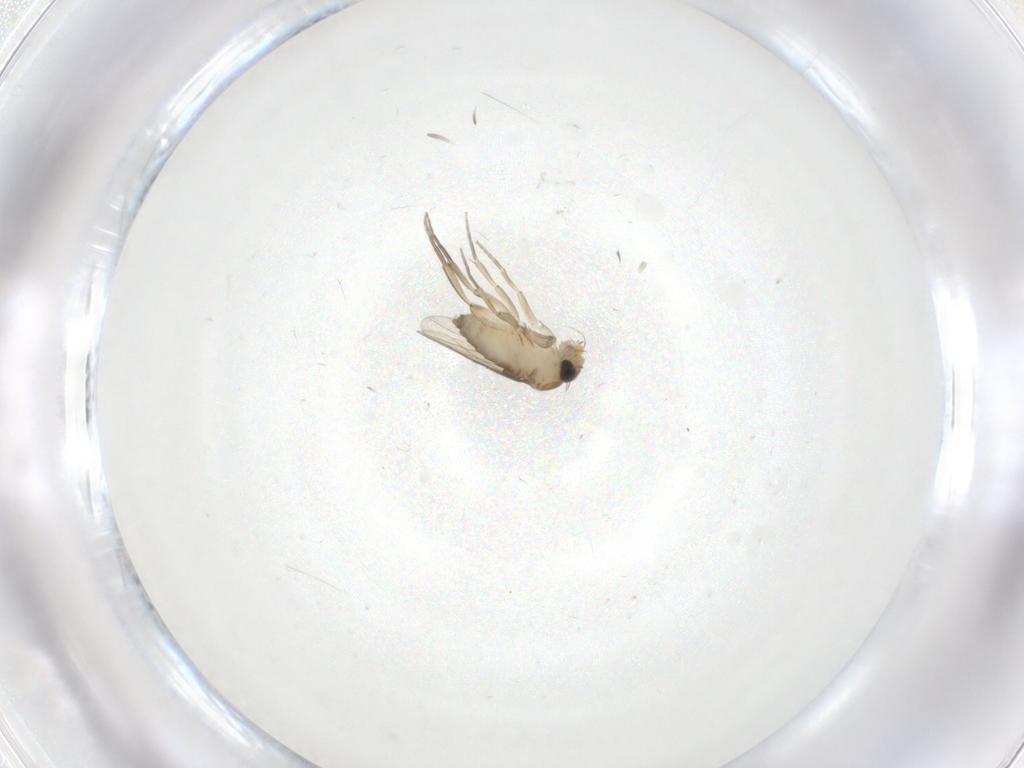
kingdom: Animalia
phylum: Arthropoda
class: Insecta
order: Diptera
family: Phoridae
